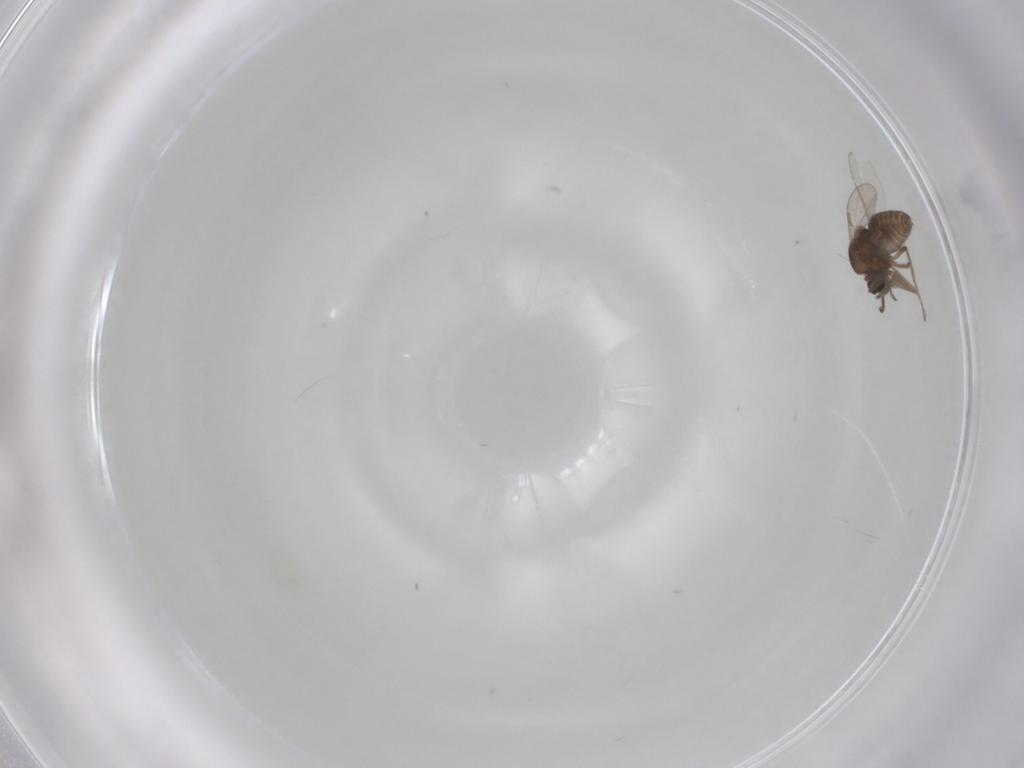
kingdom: Animalia
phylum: Arthropoda
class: Insecta
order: Diptera
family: Ceratopogonidae
